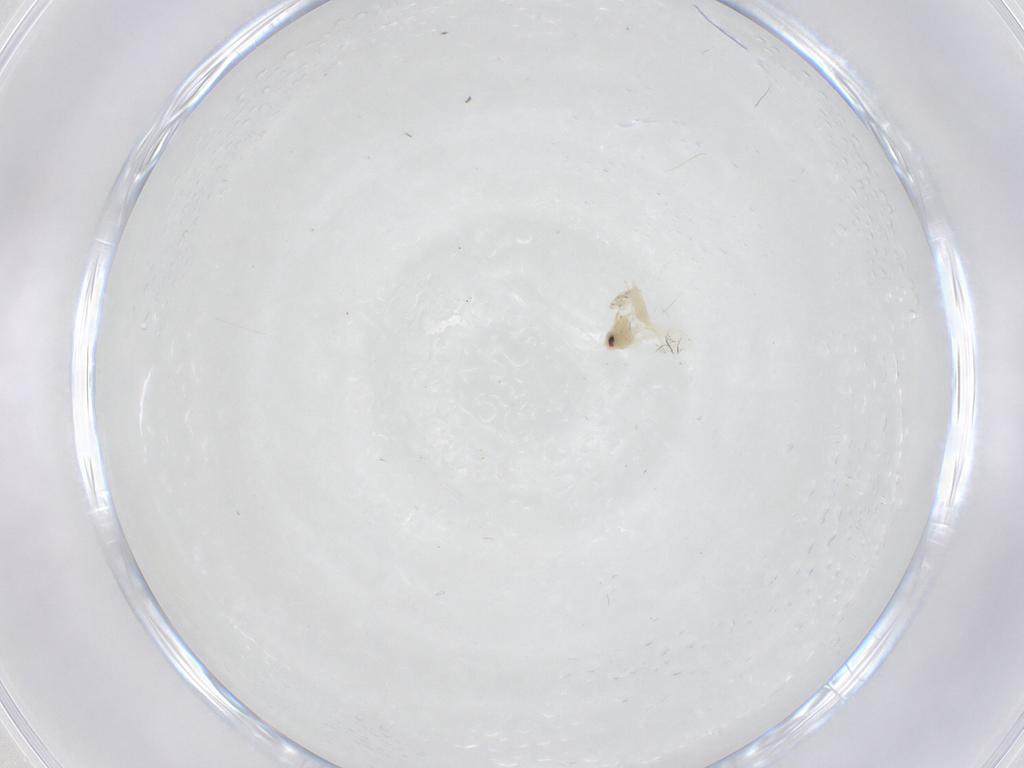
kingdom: Animalia
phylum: Arthropoda
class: Insecta
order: Hemiptera
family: Aleyrodidae
